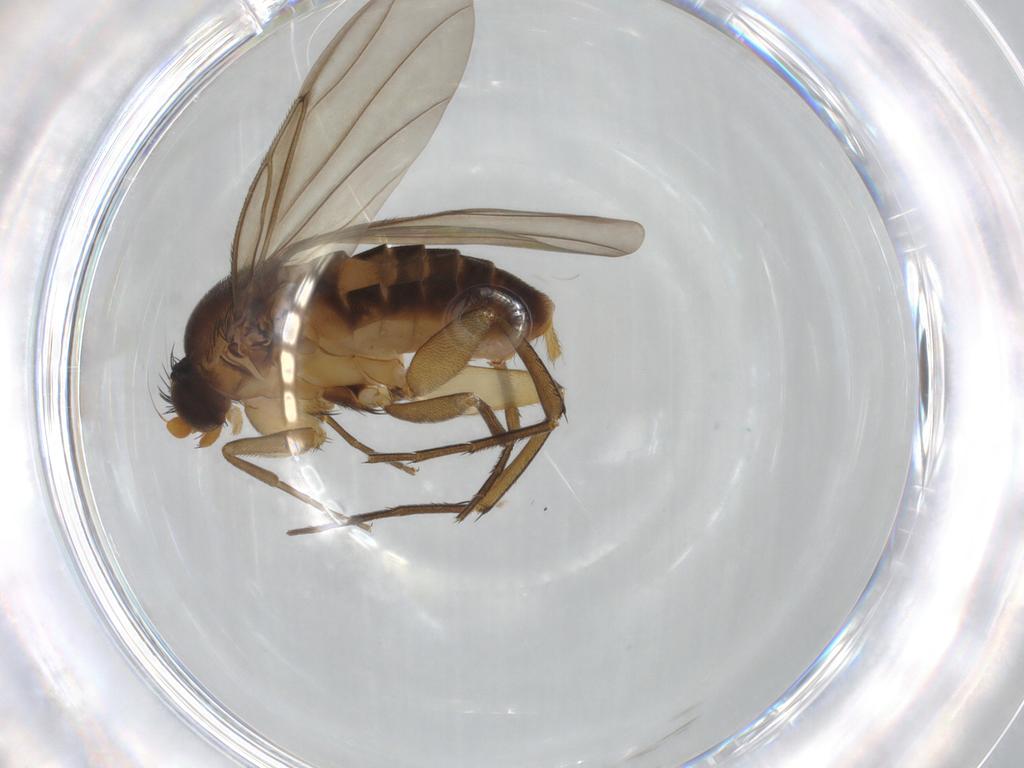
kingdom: Animalia
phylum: Arthropoda
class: Insecta
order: Diptera
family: Phoridae
